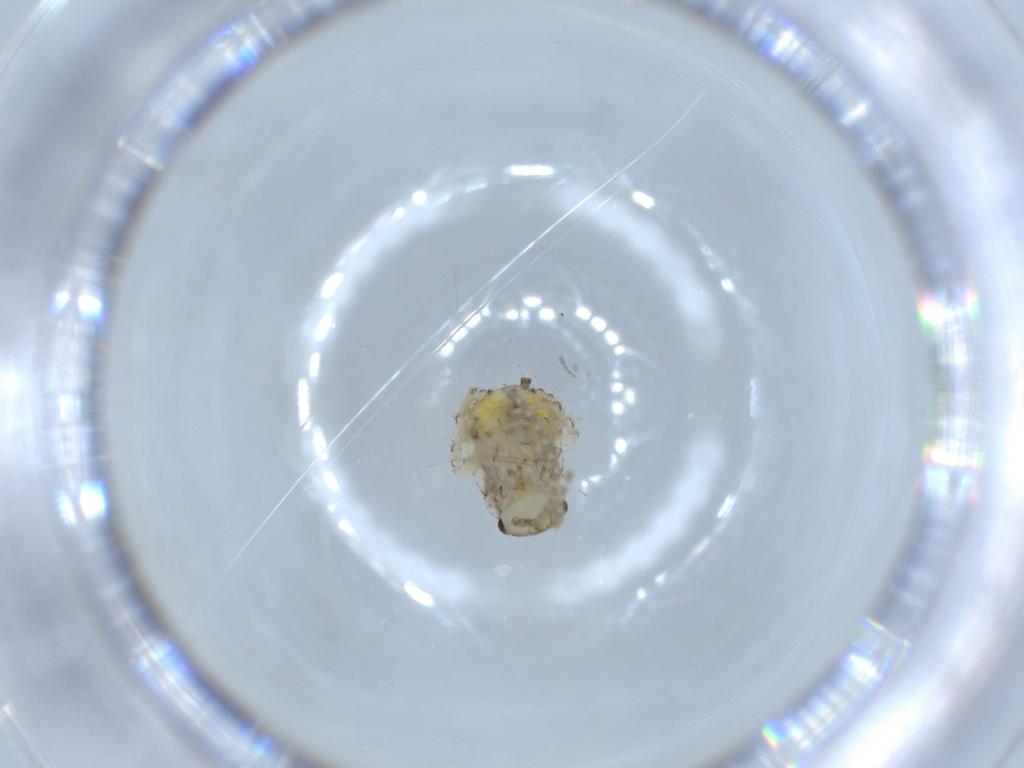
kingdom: Animalia
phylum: Arthropoda
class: Insecta
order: Blattodea
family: Ectobiidae
